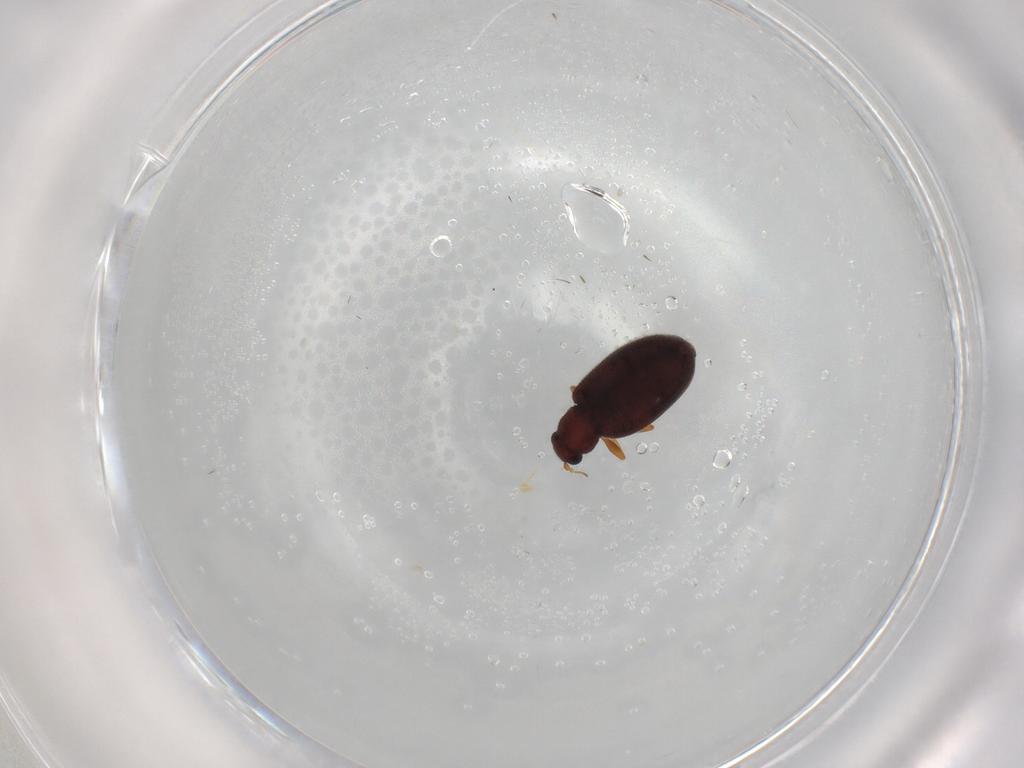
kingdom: Animalia
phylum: Arthropoda
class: Insecta
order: Coleoptera
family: Latridiidae
